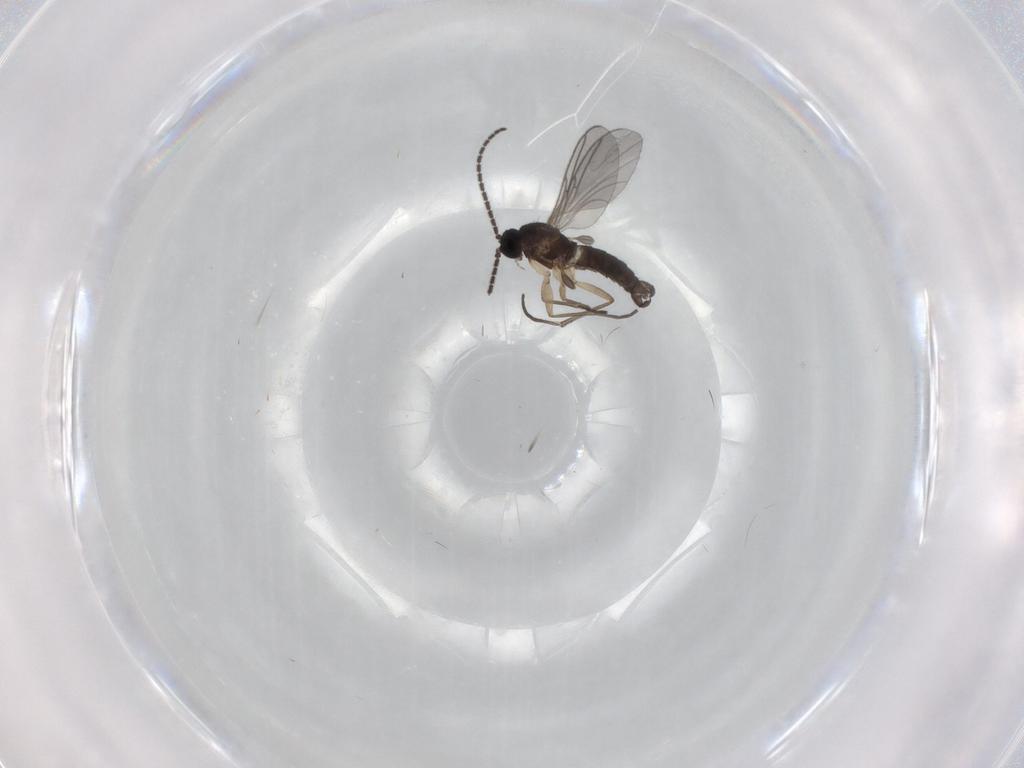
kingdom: Animalia
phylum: Arthropoda
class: Insecta
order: Diptera
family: Sciaridae
